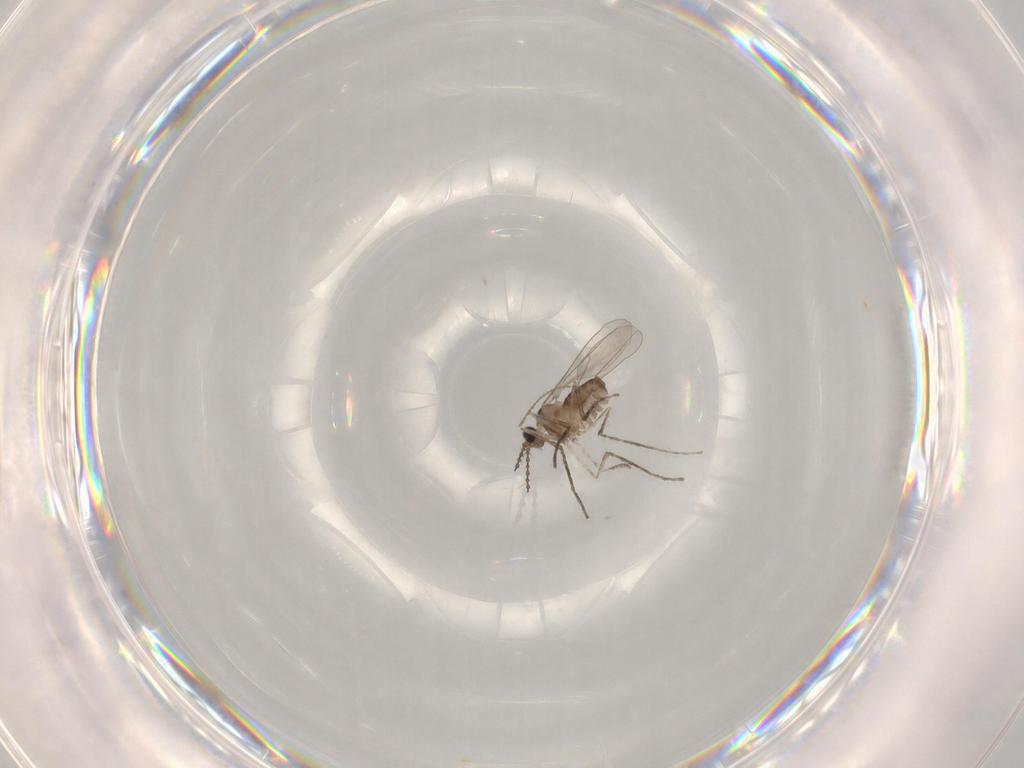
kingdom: Animalia
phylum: Arthropoda
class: Insecta
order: Diptera
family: Cecidomyiidae
